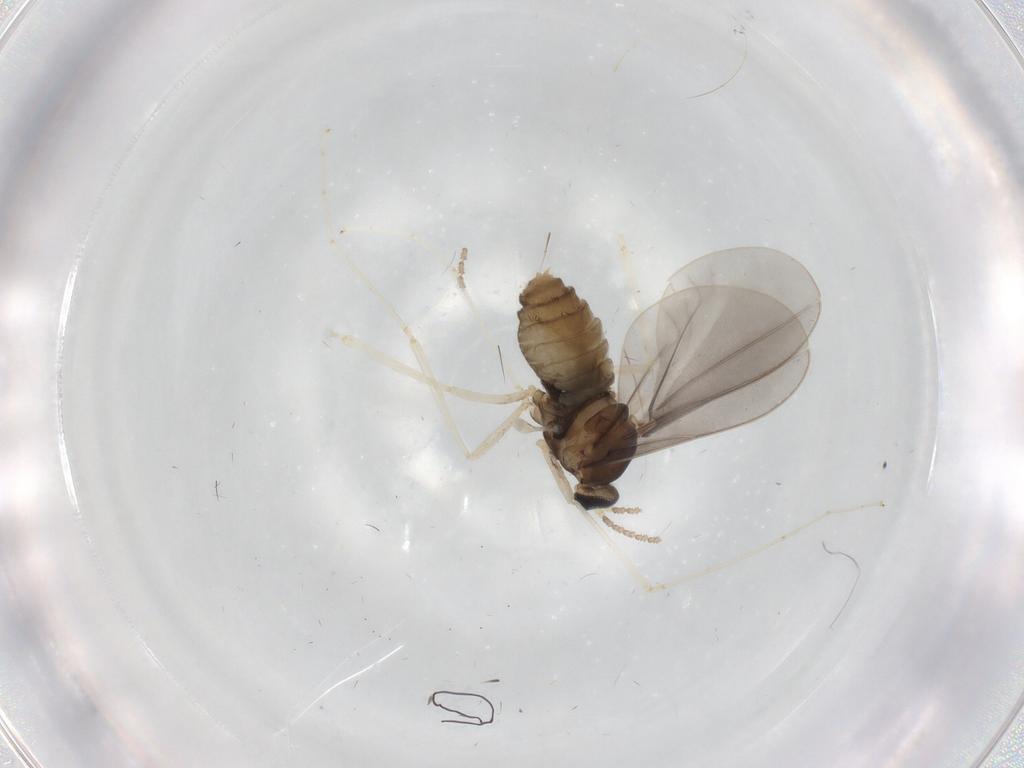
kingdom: Animalia
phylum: Arthropoda
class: Insecta
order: Diptera
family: Cecidomyiidae
